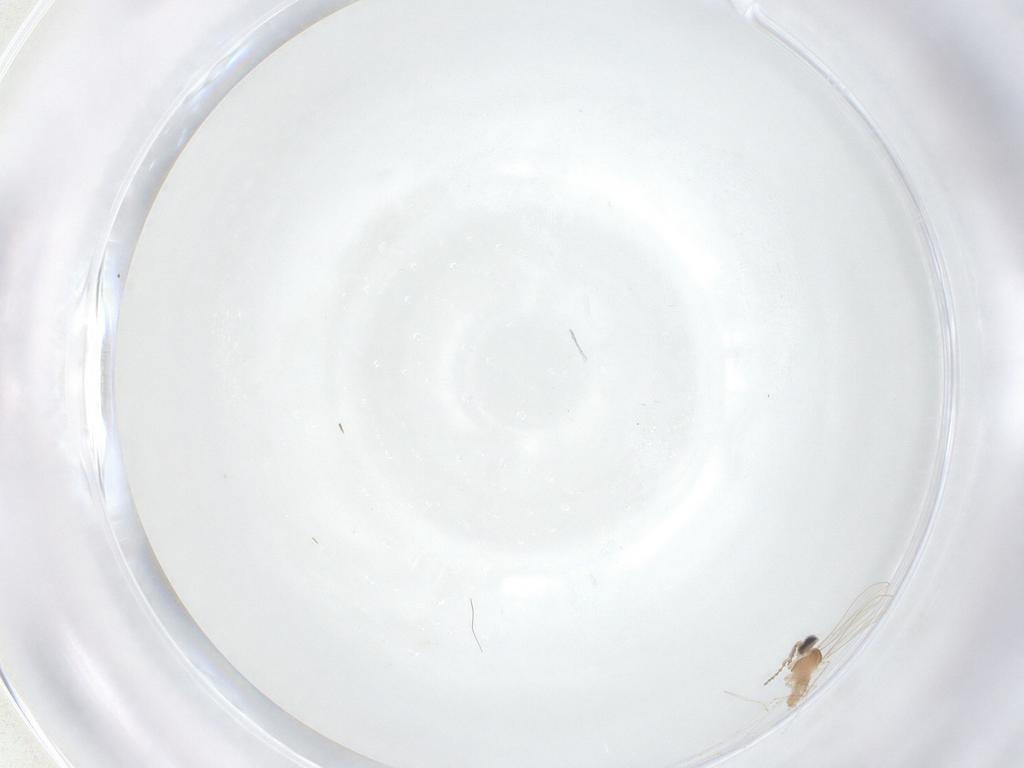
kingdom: Animalia
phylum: Arthropoda
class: Insecta
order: Diptera
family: Cecidomyiidae
